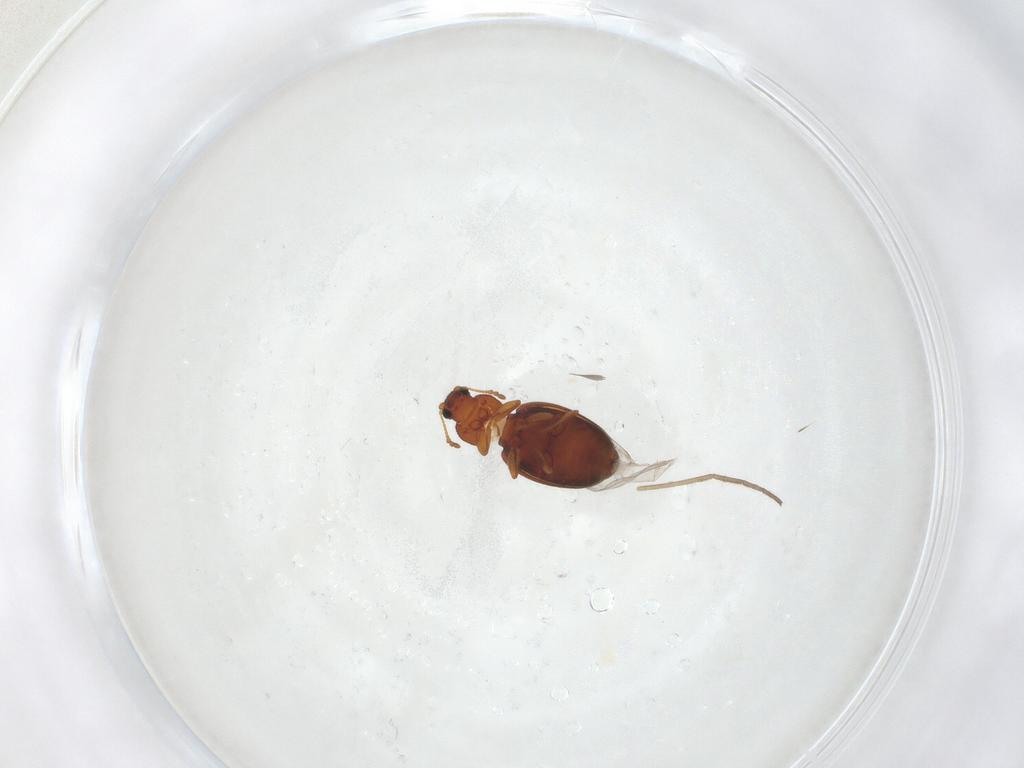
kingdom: Animalia
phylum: Arthropoda
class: Insecta
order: Coleoptera
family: Latridiidae
